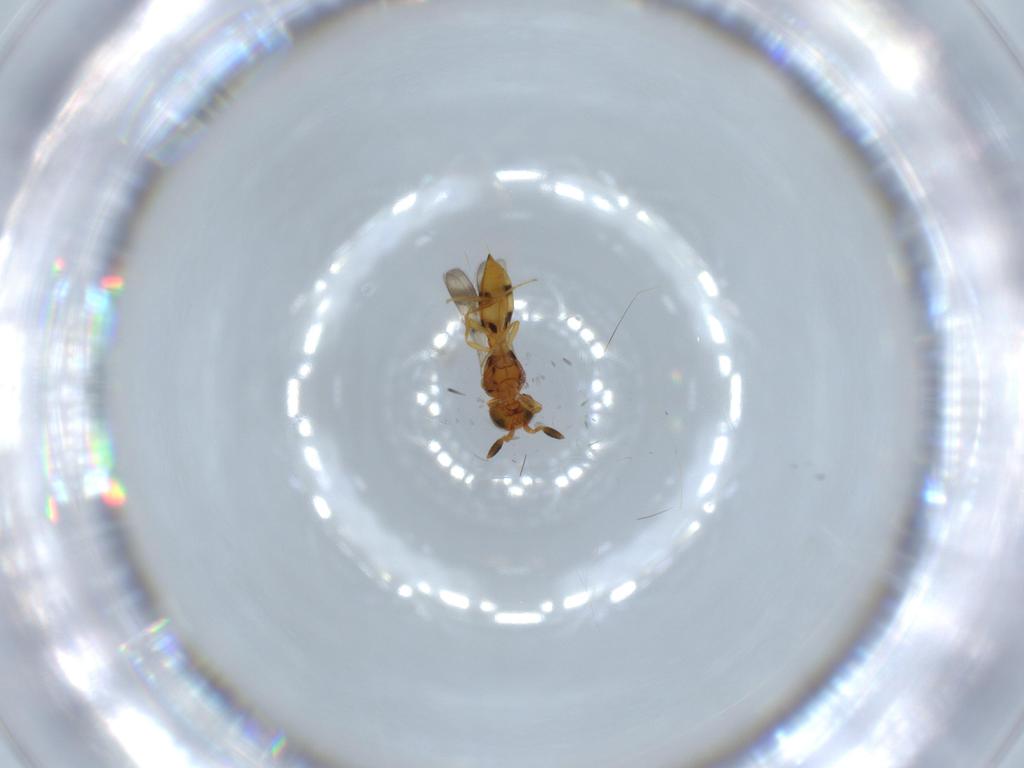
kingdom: Animalia
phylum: Arthropoda
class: Insecta
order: Hymenoptera
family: Scelionidae
